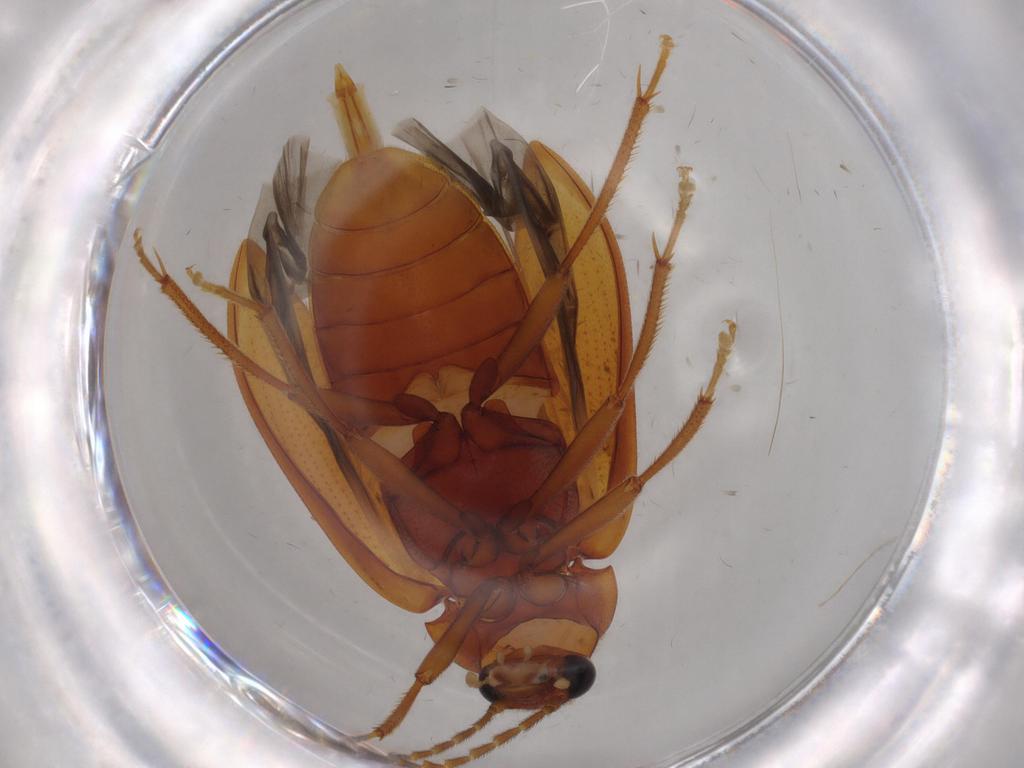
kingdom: Animalia
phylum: Arthropoda
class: Insecta
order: Coleoptera
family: Ptilodactylidae
